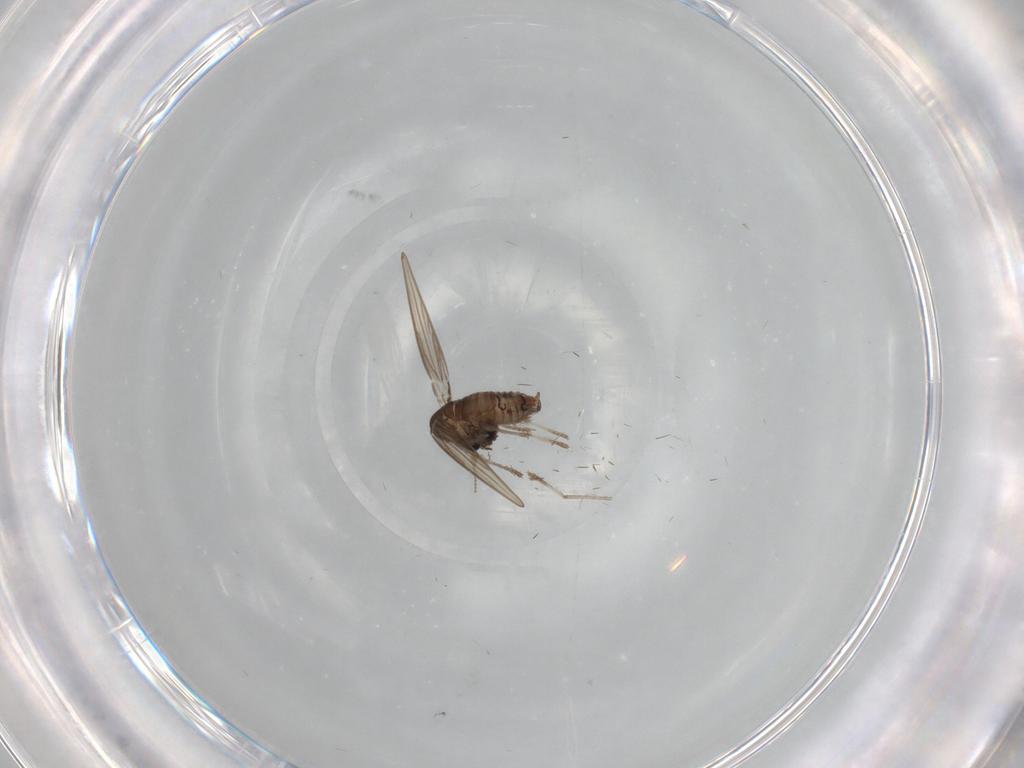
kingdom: Animalia
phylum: Arthropoda
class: Insecta
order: Diptera
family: Psychodidae
